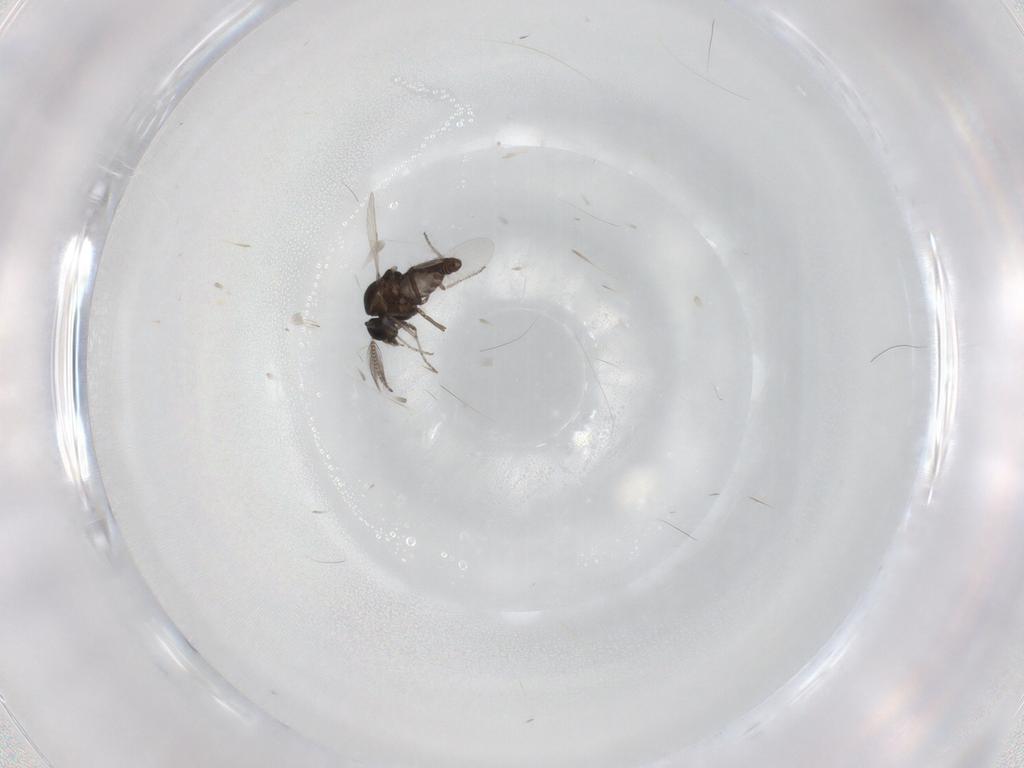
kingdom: Animalia
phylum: Arthropoda
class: Insecta
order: Diptera
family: Ceratopogonidae
